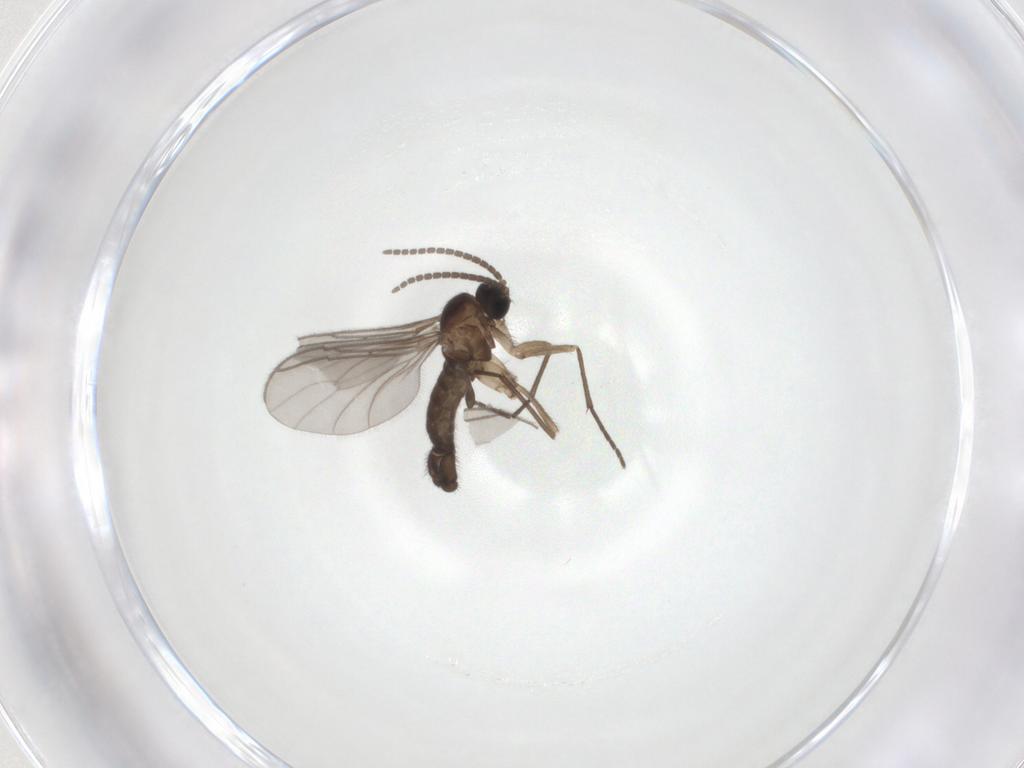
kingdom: Animalia
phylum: Arthropoda
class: Insecta
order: Diptera
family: Sciaridae
